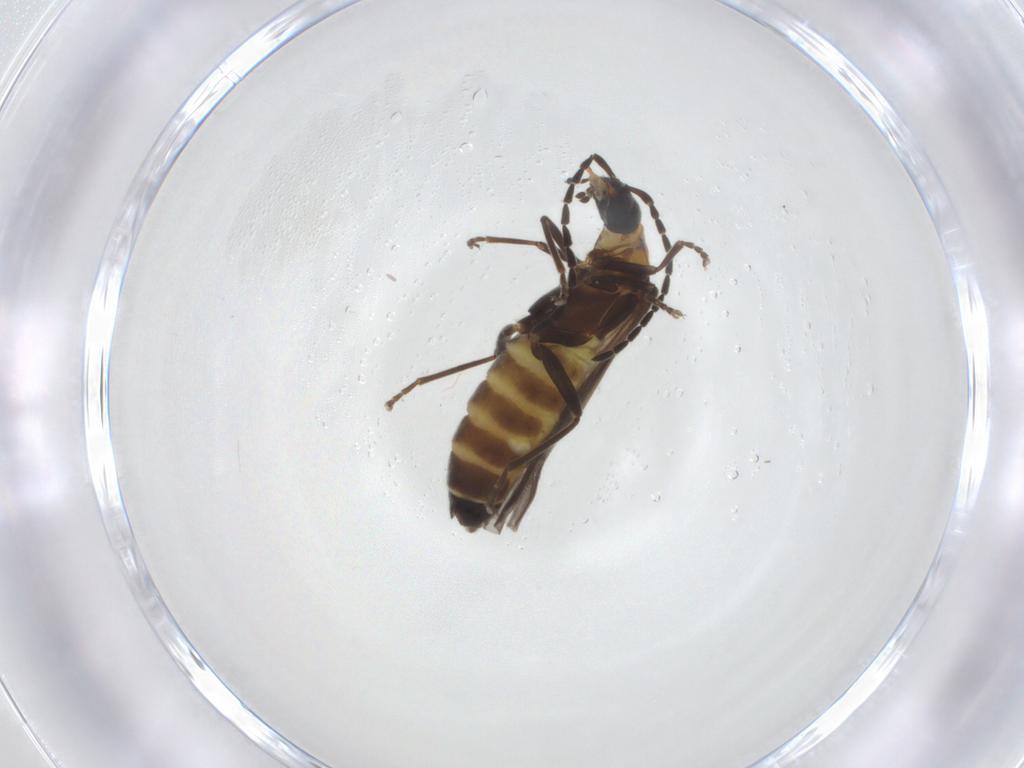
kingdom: Animalia
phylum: Arthropoda
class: Insecta
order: Coleoptera
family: Cantharidae
